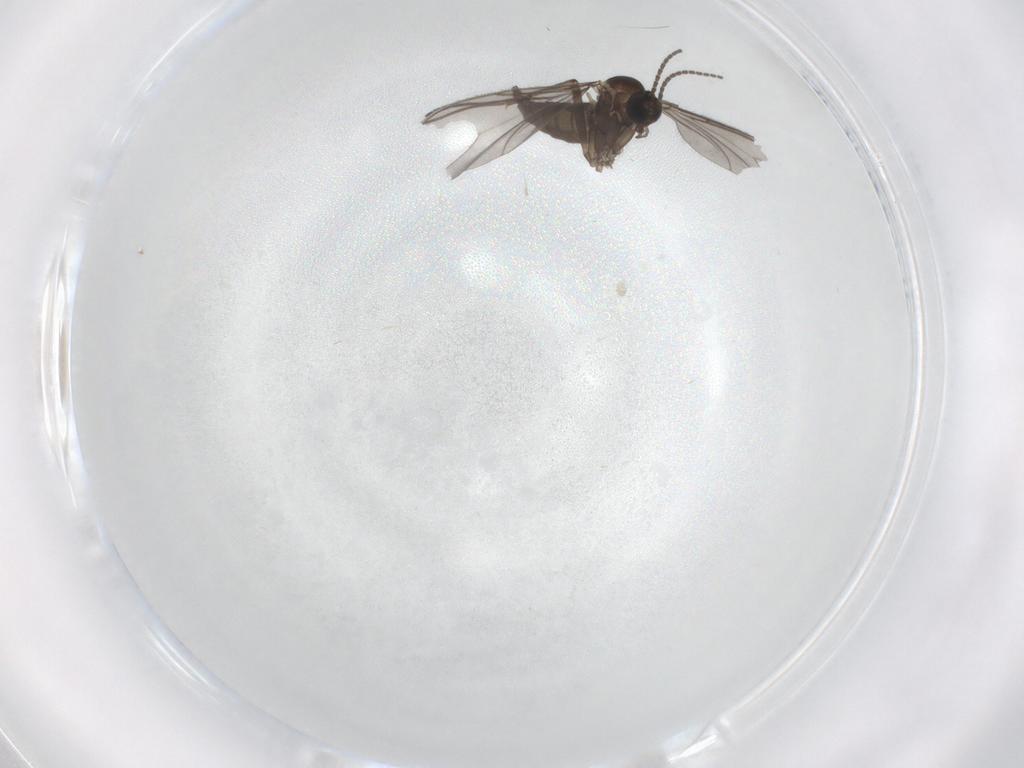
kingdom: Animalia
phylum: Arthropoda
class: Insecta
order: Diptera
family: Sciaridae
